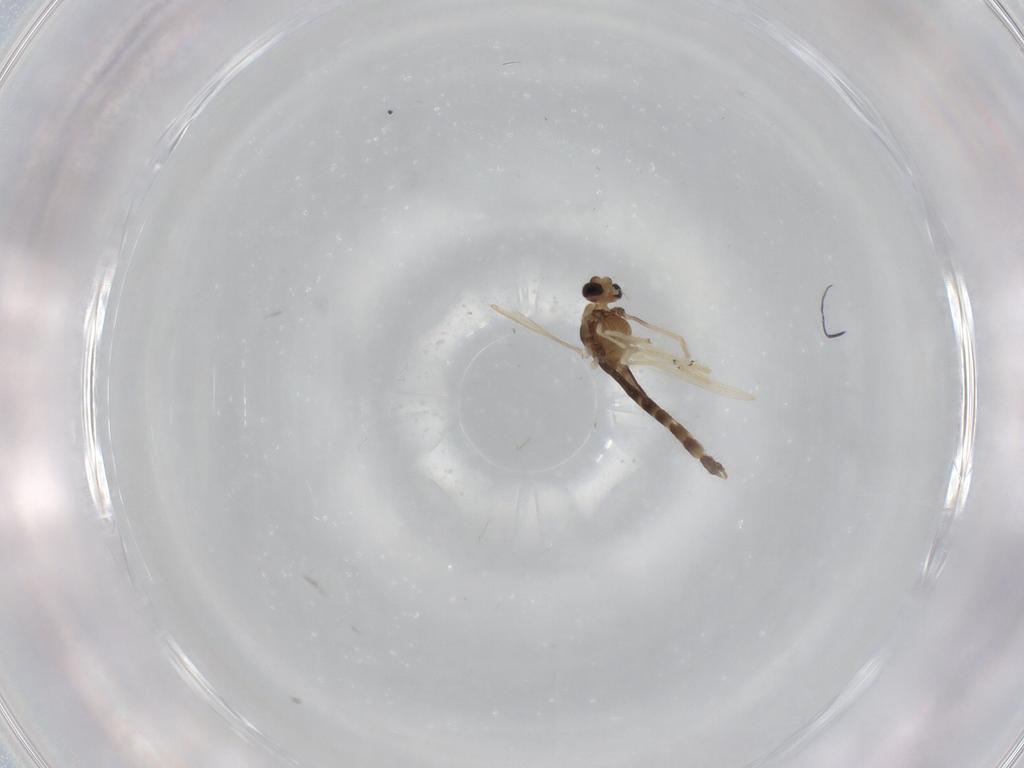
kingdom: Animalia
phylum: Arthropoda
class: Insecta
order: Diptera
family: Chironomidae
